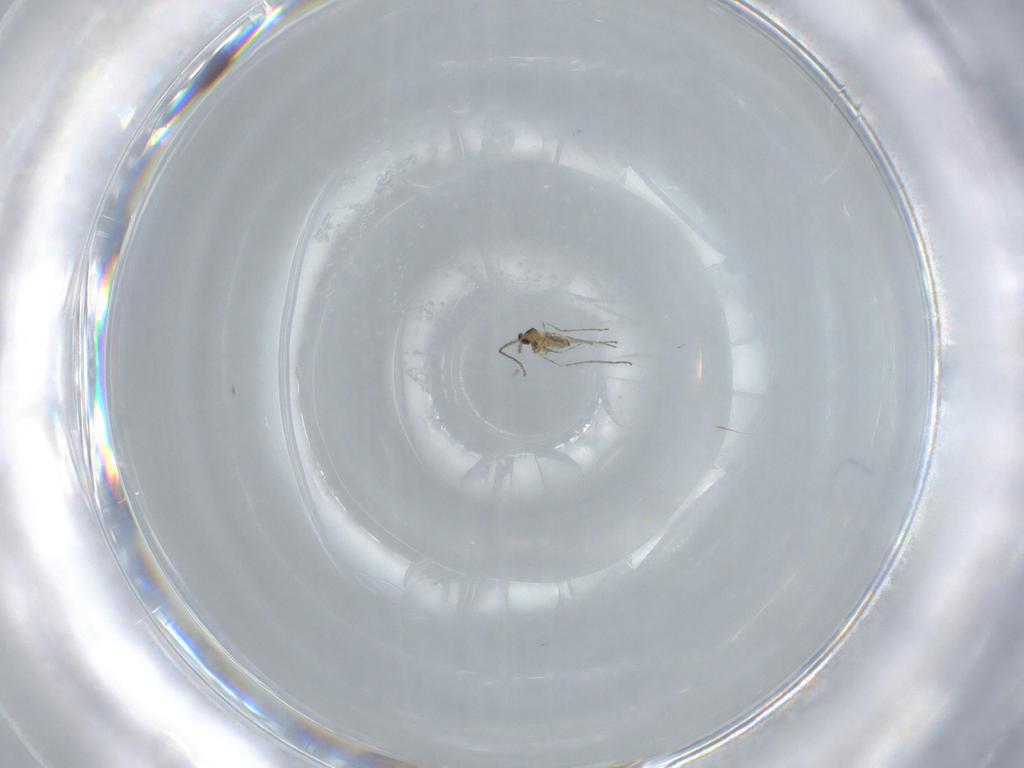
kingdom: Animalia
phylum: Arthropoda
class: Insecta
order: Diptera
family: Cecidomyiidae
